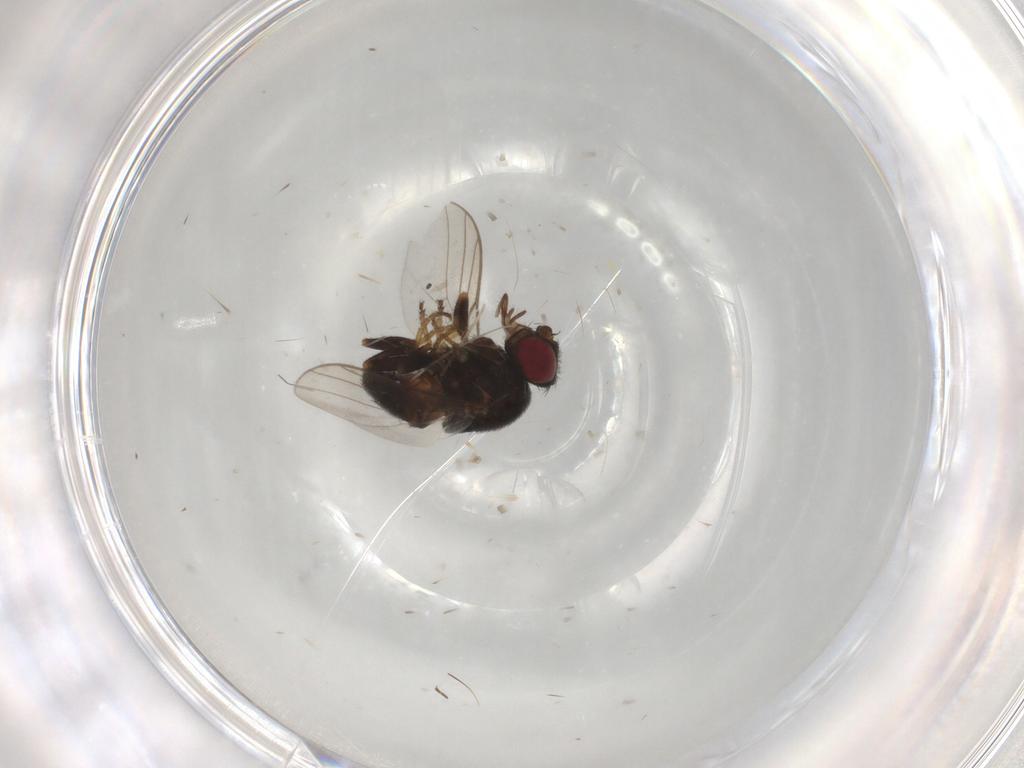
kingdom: Animalia
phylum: Arthropoda
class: Insecta
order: Diptera
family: Chloropidae
